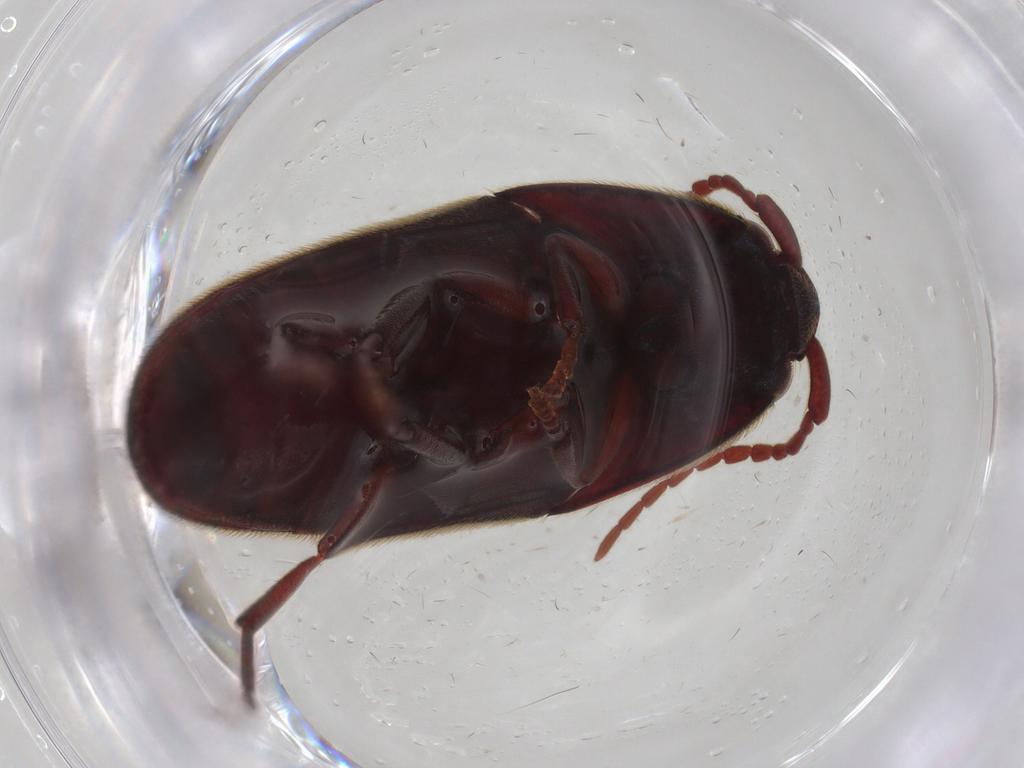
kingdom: Animalia
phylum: Arthropoda
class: Insecta
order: Coleoptera
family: Eucnemidae
